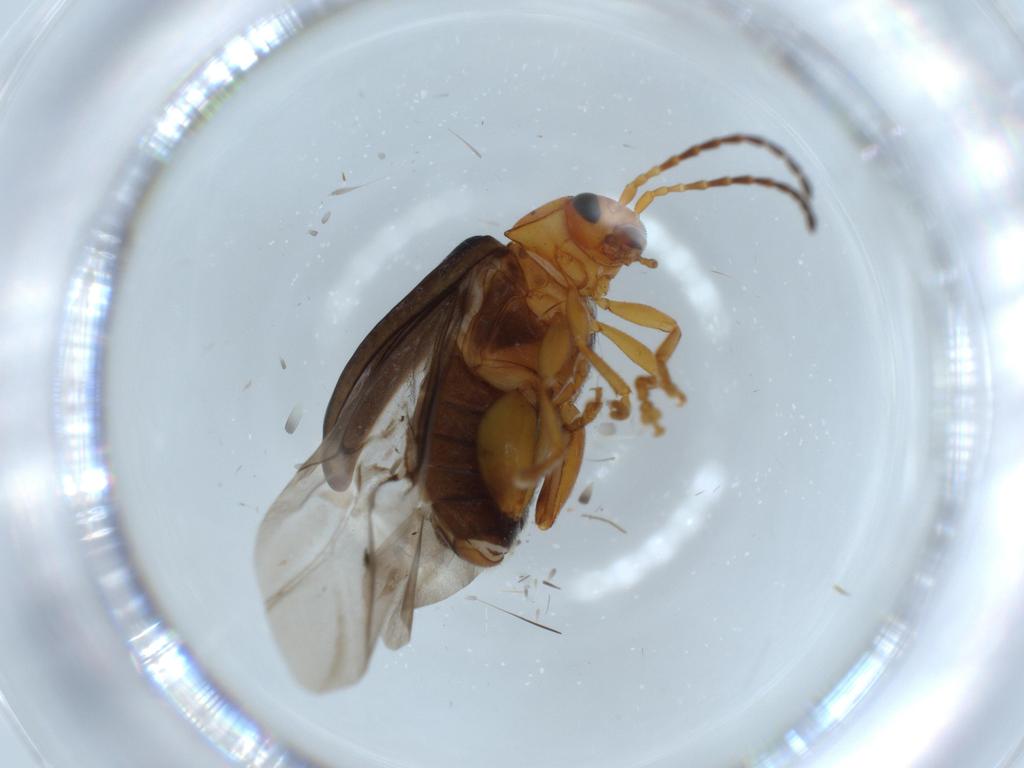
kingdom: Animalia
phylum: Arthropoda
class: Insecta
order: Coleoptera
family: Chrysomelidae
